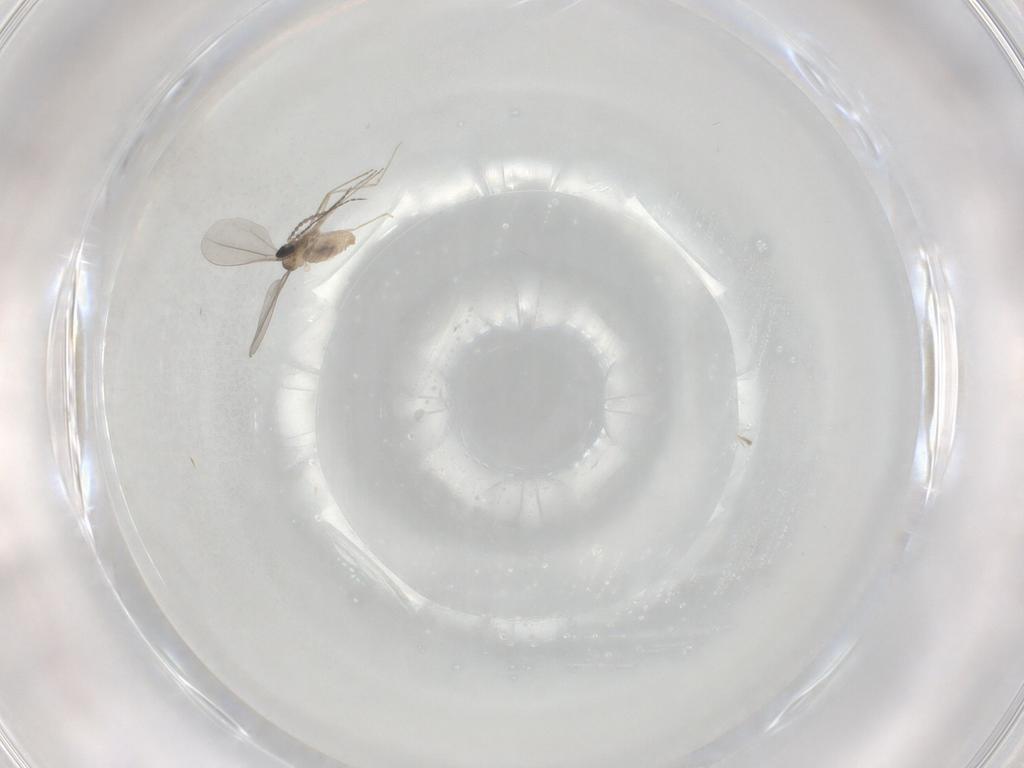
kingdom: Animalia
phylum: Arthropoda
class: Insecta
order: Diptera
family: Cecidomyiidae
